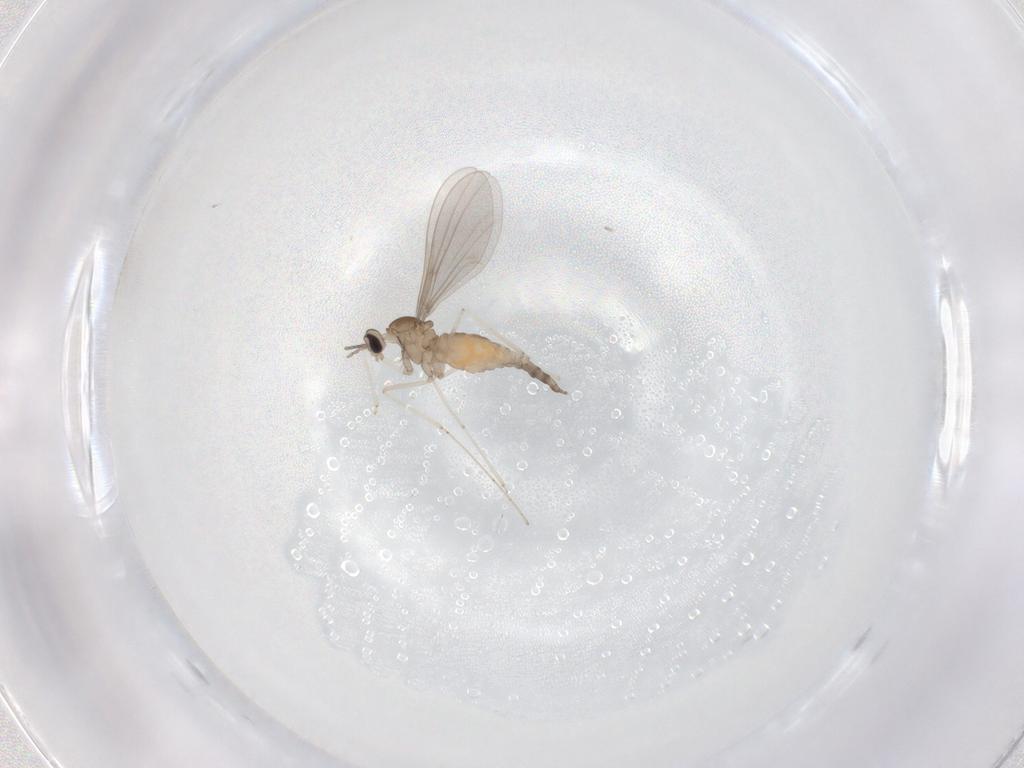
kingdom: Animalia
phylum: Arthropoda
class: Insecta
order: Diptera
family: Cecidomyiidae
